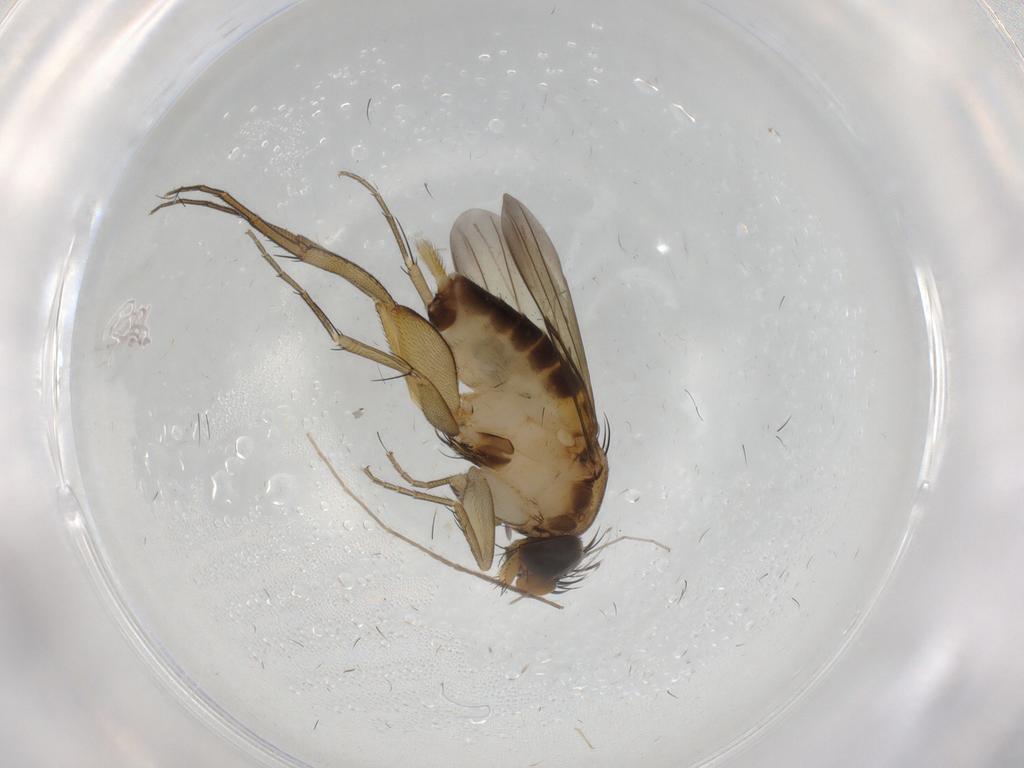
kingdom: Animalia
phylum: Arthropoda
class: Insecta
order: Diptera
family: Phoridae
